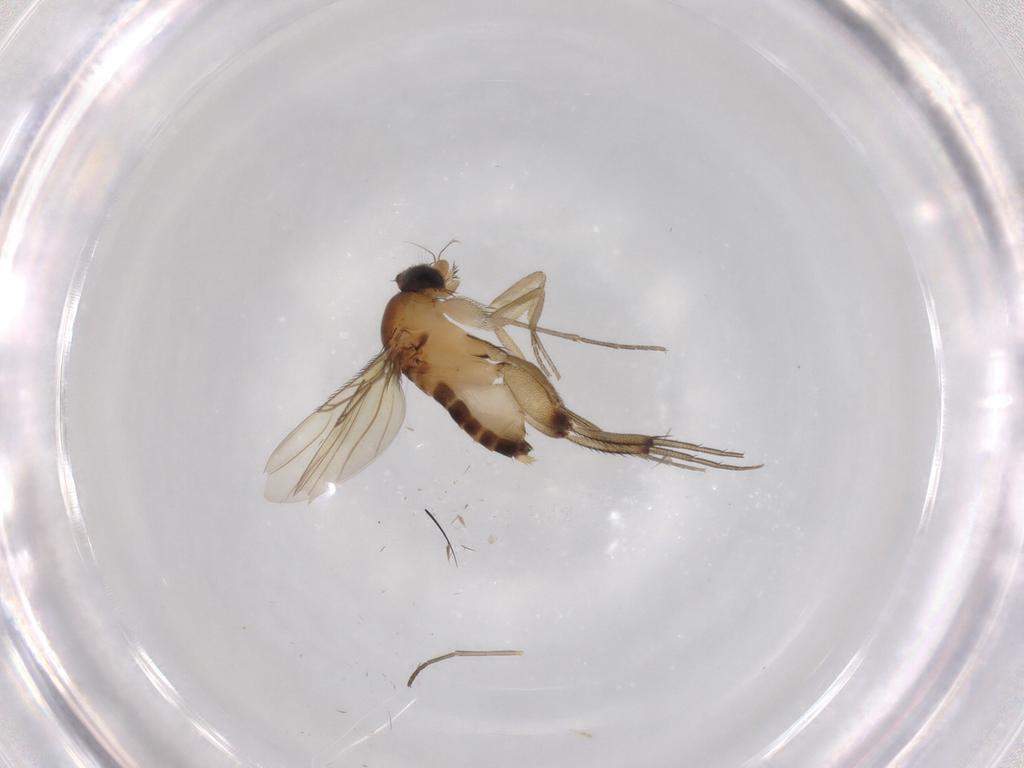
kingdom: Animalia
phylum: Arthropoda
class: Insecta
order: Diptera
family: Phoridae
